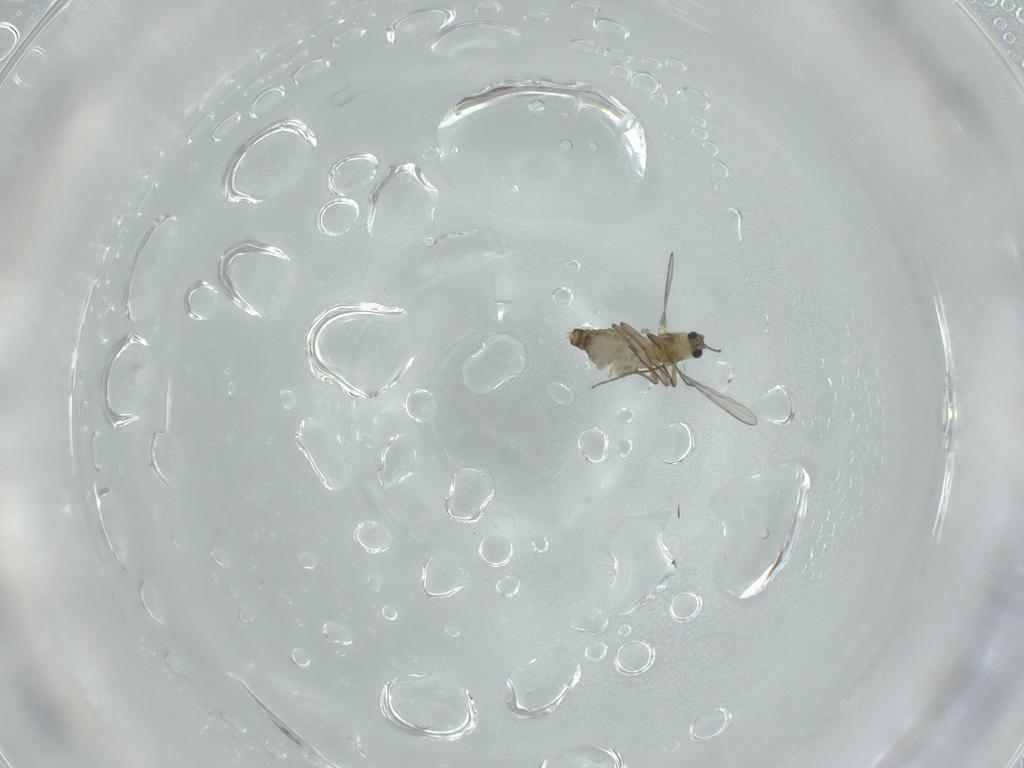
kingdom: Animalia
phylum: Arthropoda
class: Insecta
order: Diptera
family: Chironomidae
